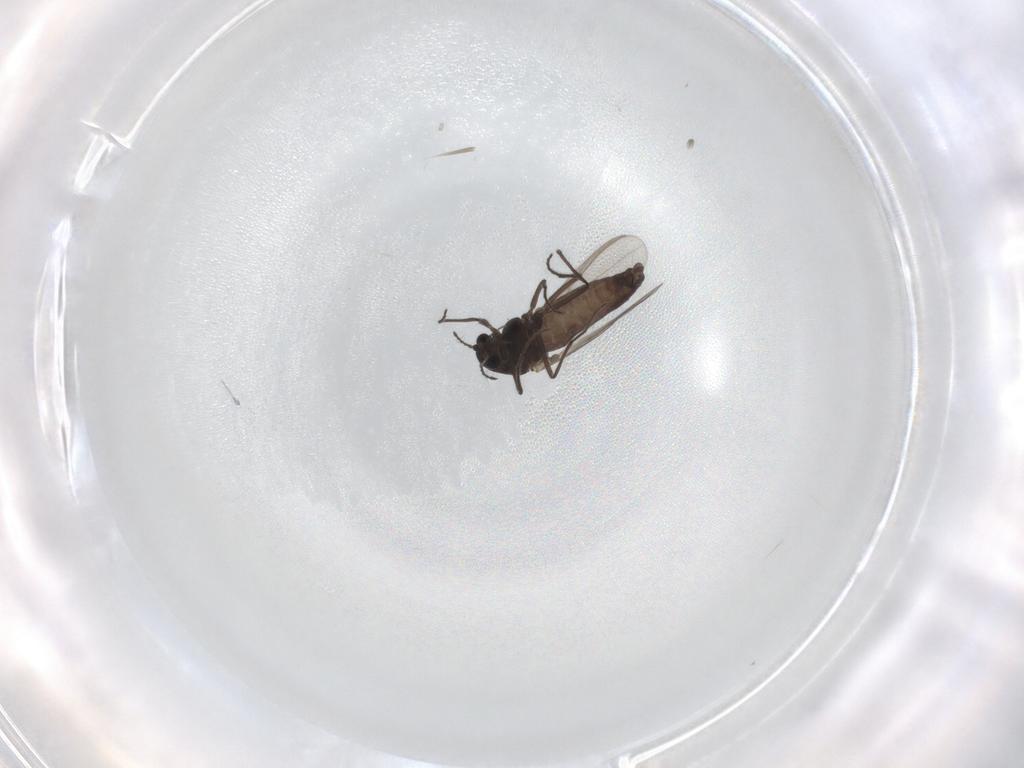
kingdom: Animalia
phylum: Arthropoda
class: Insecta
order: Diptera
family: Chironomidae
